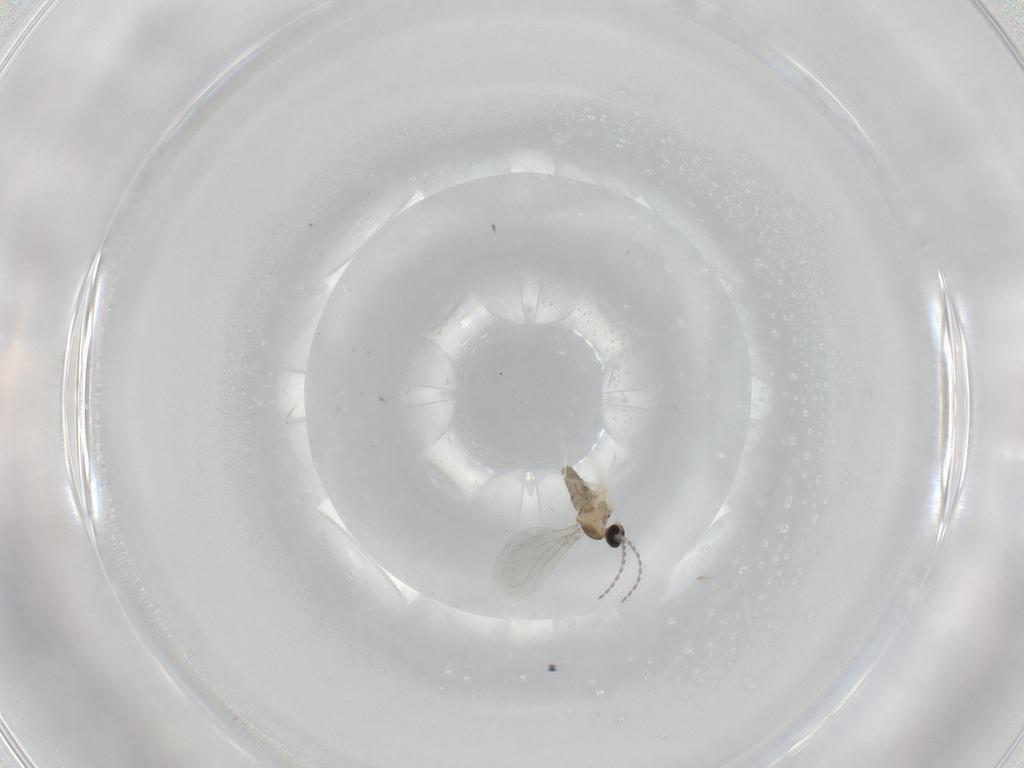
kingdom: Animalia
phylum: Arthropoda
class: Insecta
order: Diptera
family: Cecidomyiidae
